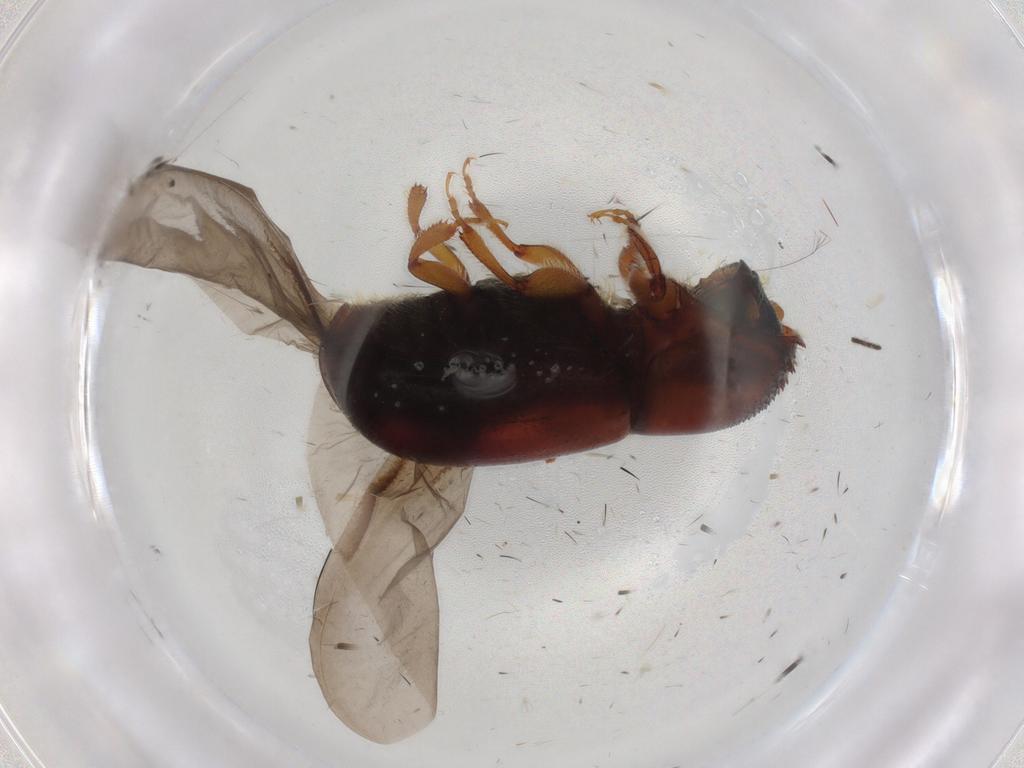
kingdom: Animalia
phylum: Arthropoda
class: Insecta
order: Coleoptera
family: Curculionidae
